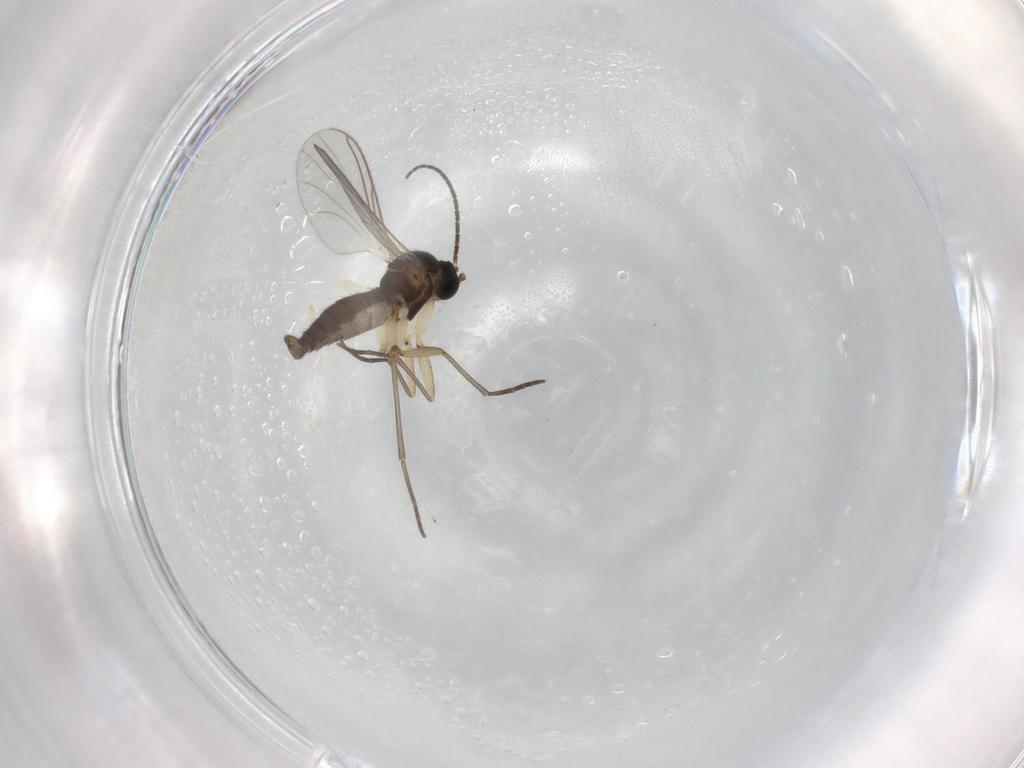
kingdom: Animalia
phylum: Arthropoda
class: Insecta
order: Diptera
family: Sciaridae
